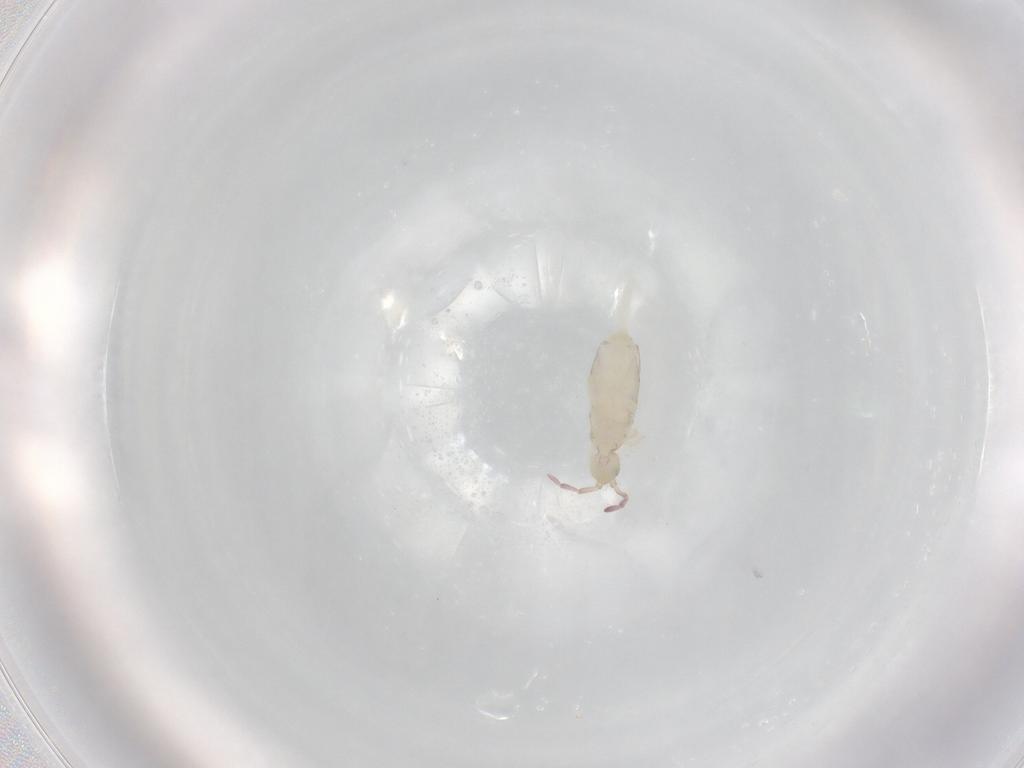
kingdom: Animalia
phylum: Arthropoda
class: Collembola
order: Entomobryomorpha
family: Entomobryidae
